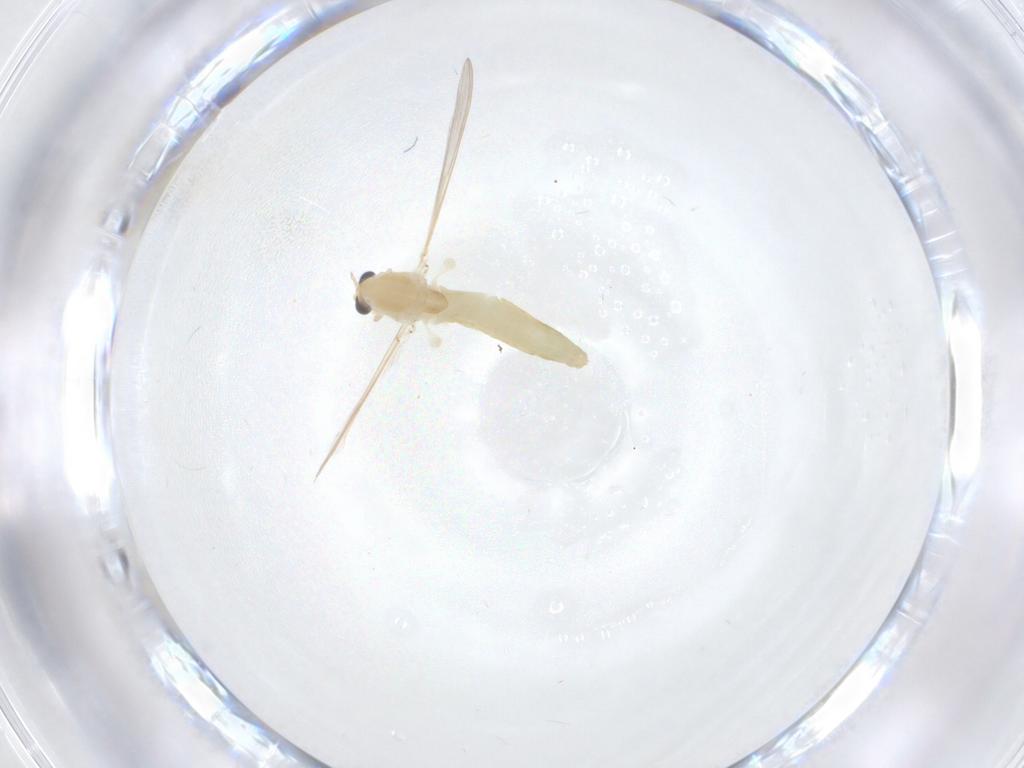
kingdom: Animalia
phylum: Arthropoda
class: Insecta
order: Diptera
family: Chironomidae
